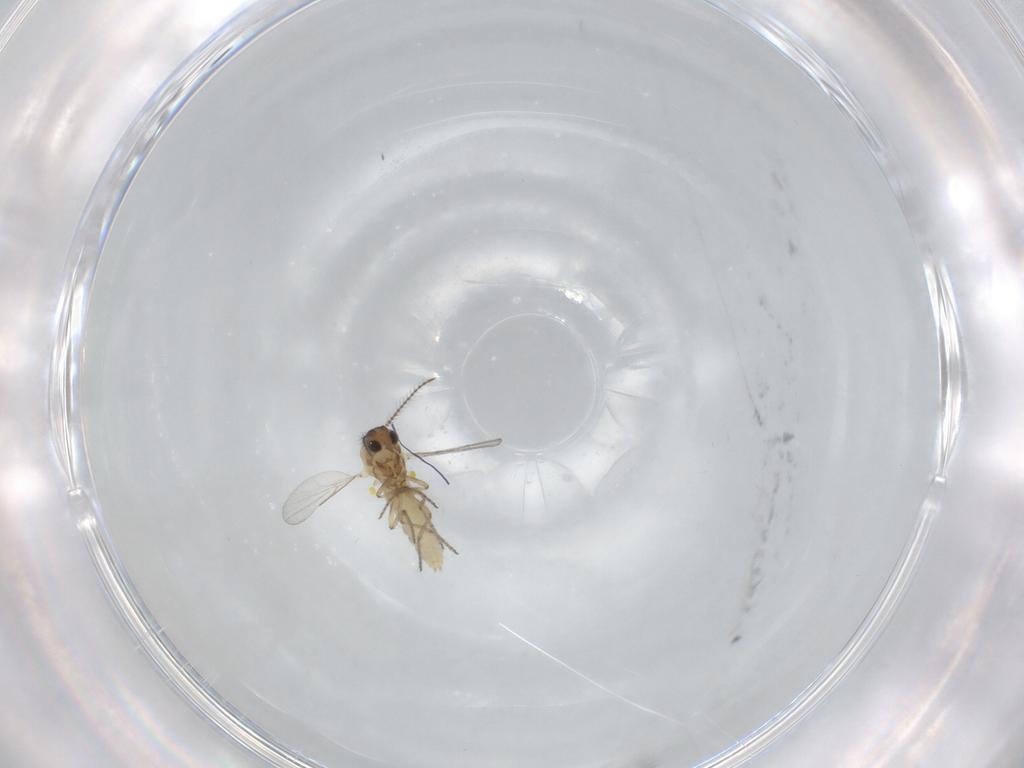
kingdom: Animalia
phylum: Arthropoda
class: Insecta
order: Diptera
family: Ceratopogonidae
